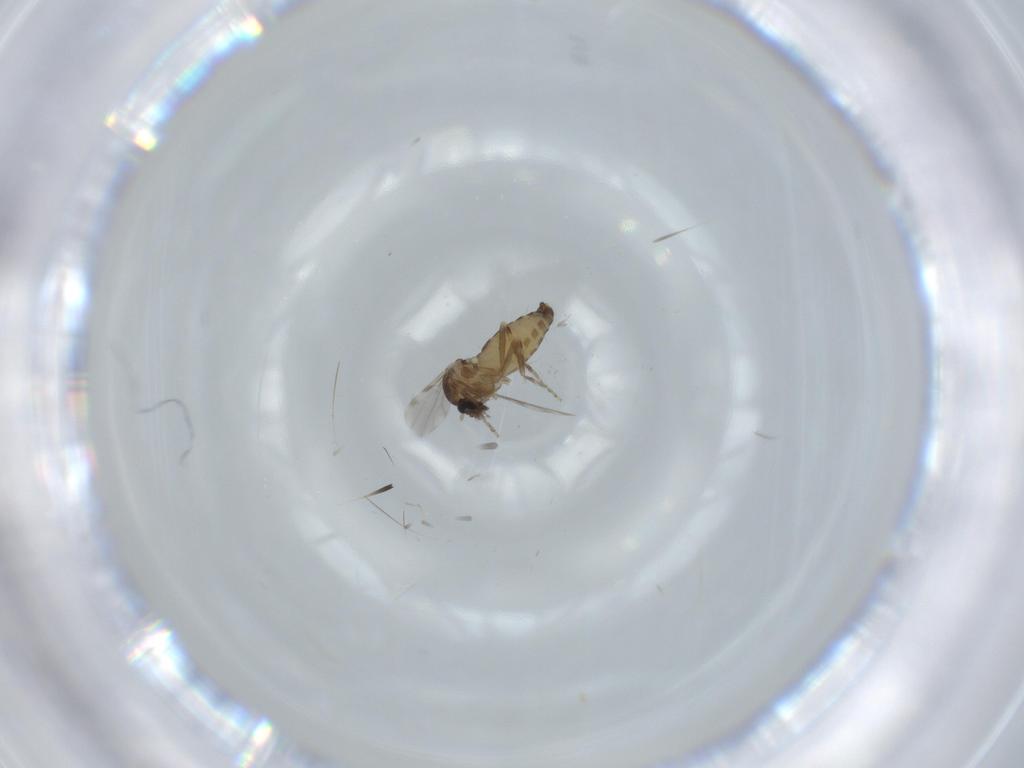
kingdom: Animalia
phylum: Arthropoda
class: Insecta
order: Diptera
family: Ceratopogonidae
